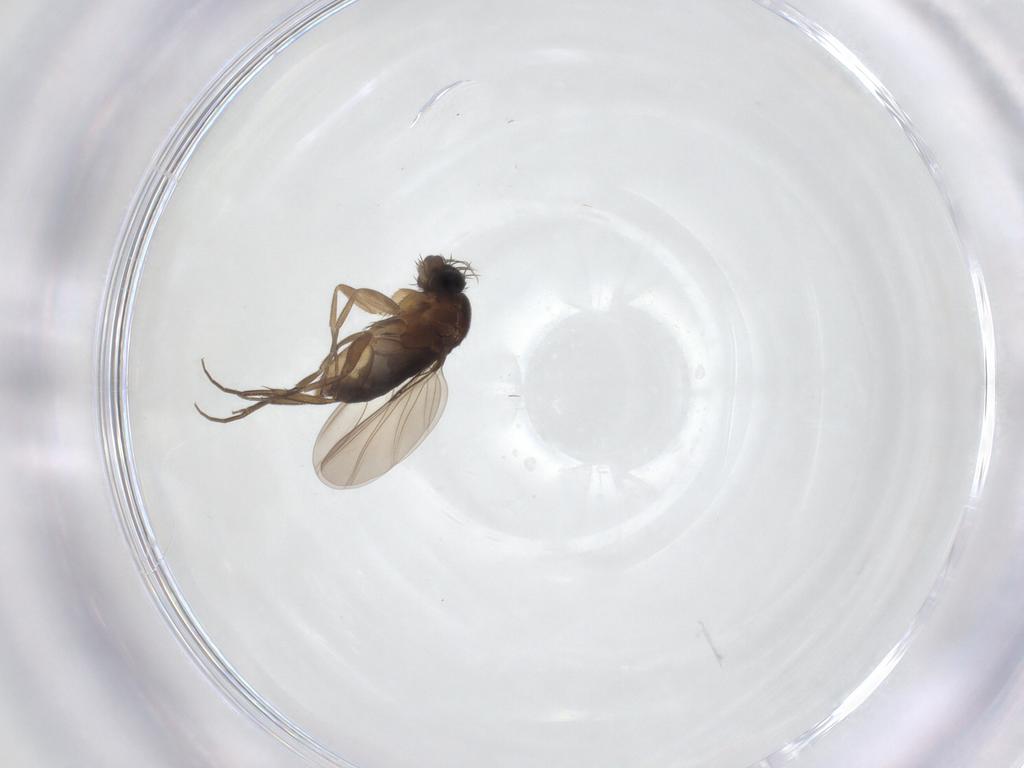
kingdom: Animalia
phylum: Arthropoda
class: Insecta
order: Diptera
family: Phoridae
